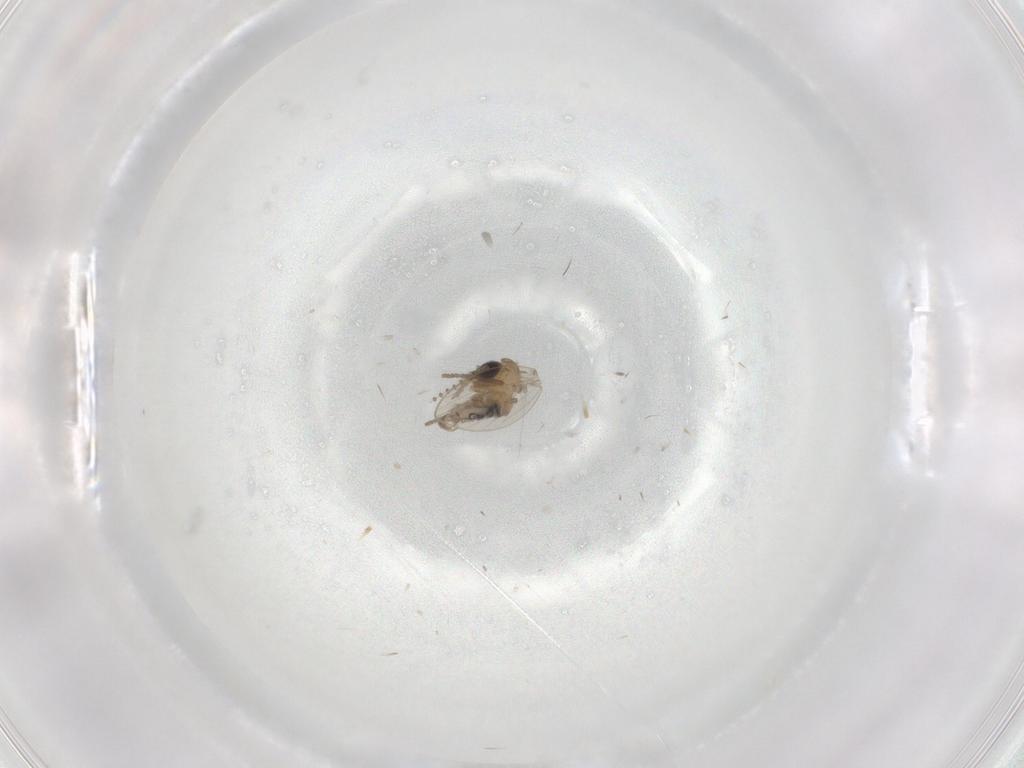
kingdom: Animalia
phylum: Arthropoda
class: Insecta
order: Diptera
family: Psychodidae
